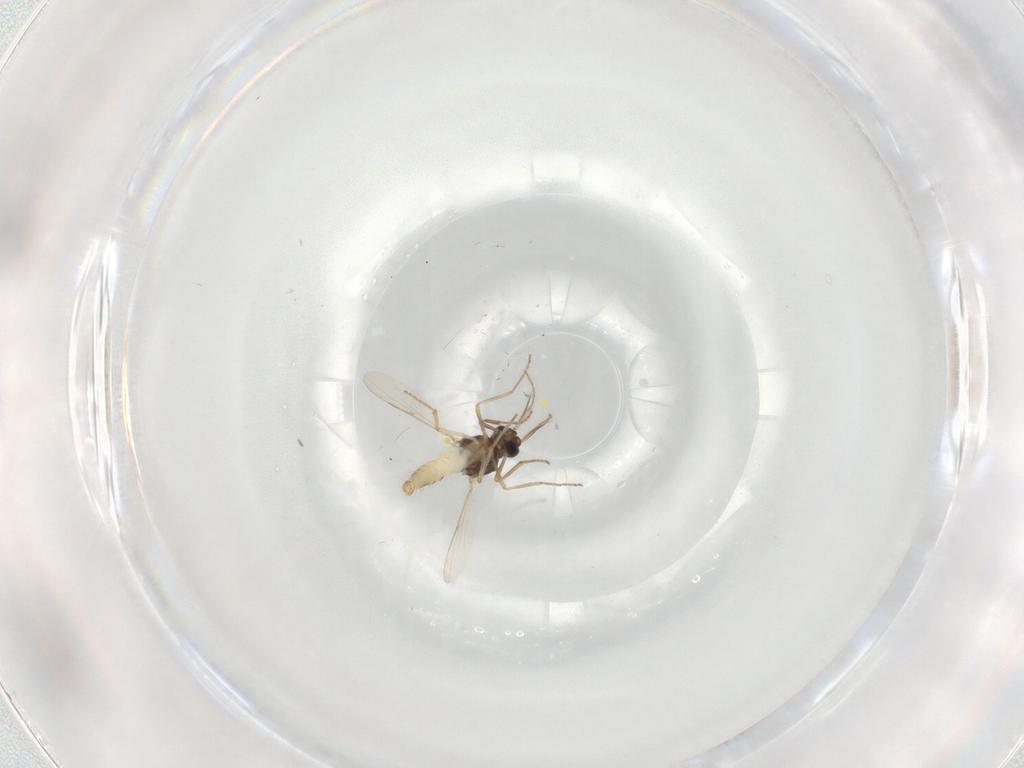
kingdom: Animalia
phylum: Arthropoda
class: Insecta
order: Diptera
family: Ceratopogonidae
